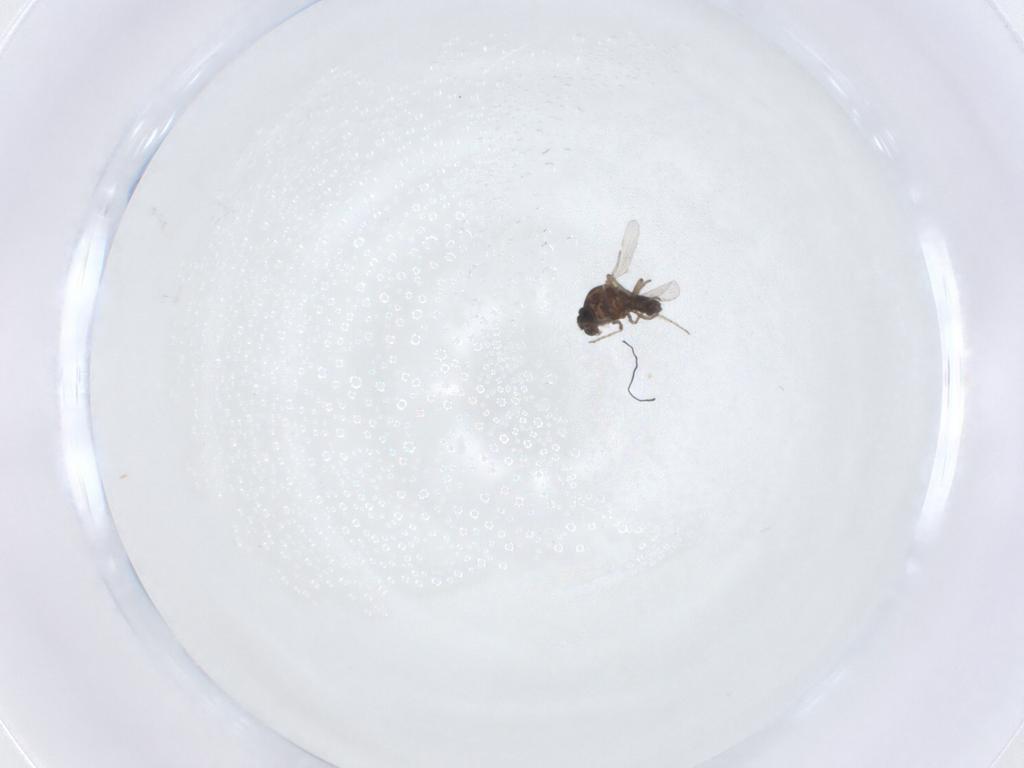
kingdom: Animalia
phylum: Arthropoda
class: Insecta
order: Diptera
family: Ceratopogonidae
